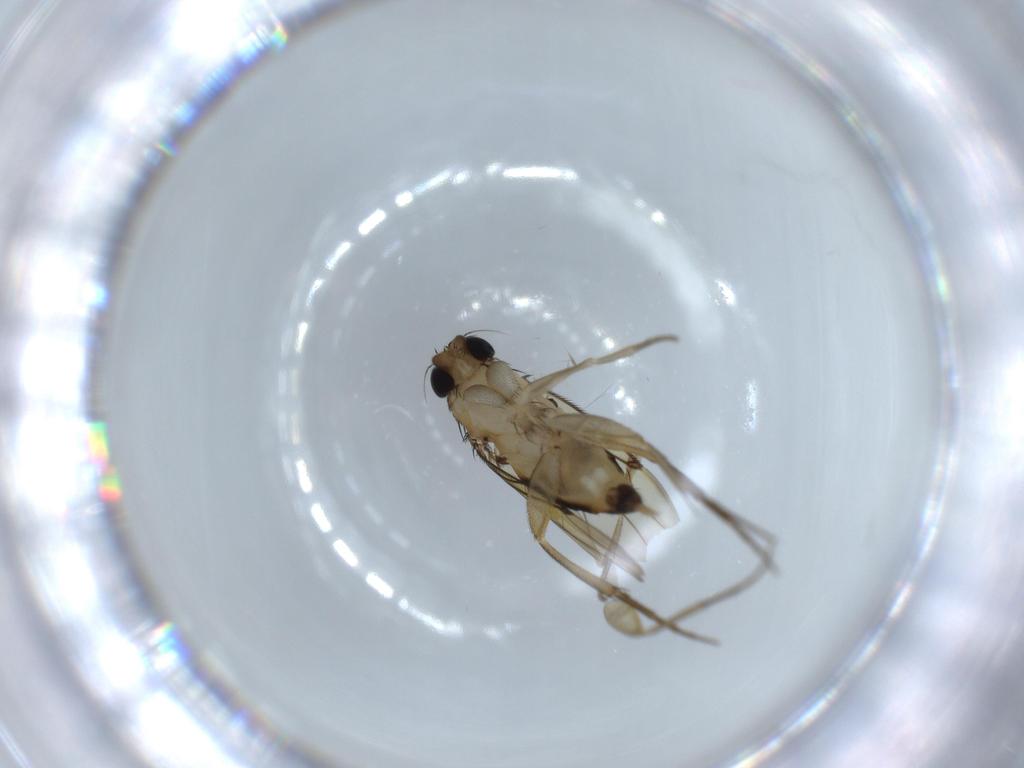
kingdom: Animalia
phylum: Arthropoda
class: Insecta
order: Diptera
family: Phoridae
